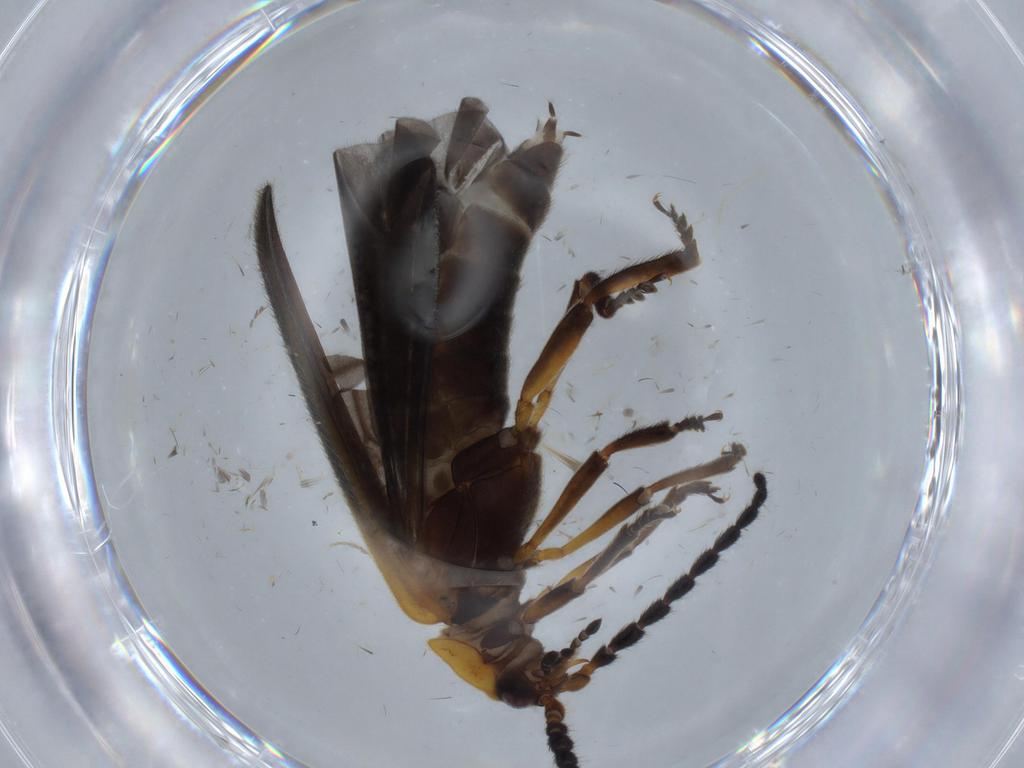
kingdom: Animalia
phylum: Arthropoda
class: Insecta
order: Coleoptera
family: Lycidae
